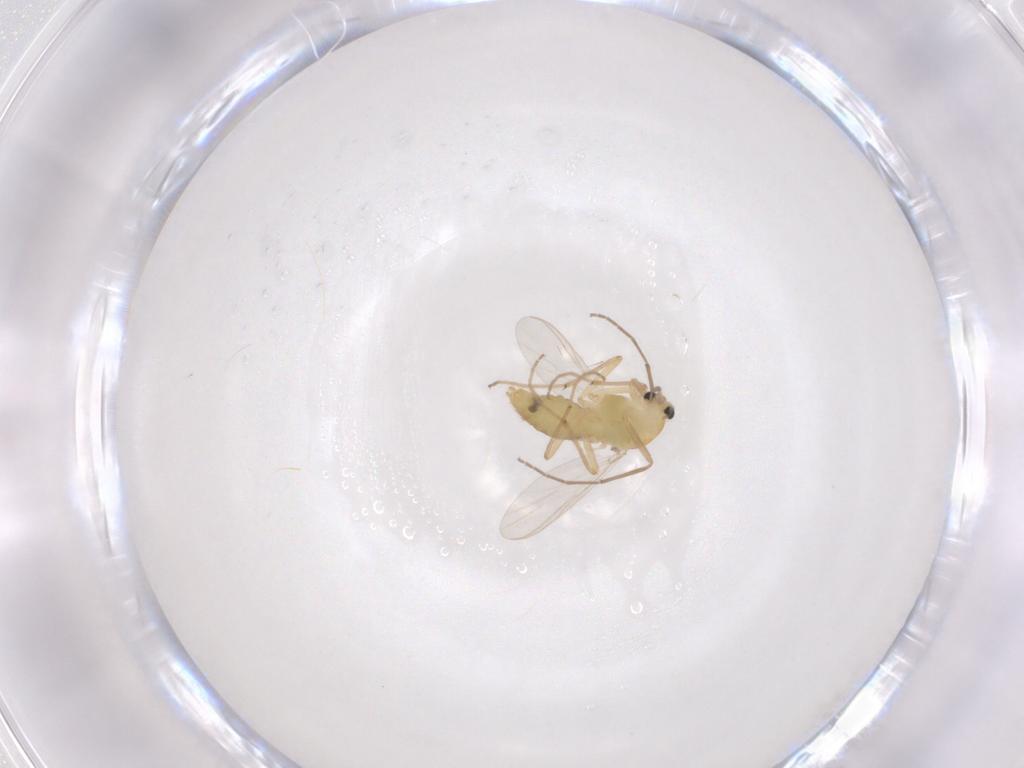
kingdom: Animalia
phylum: Arthropoda
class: Insecta
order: Diptera
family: Chironomidae
